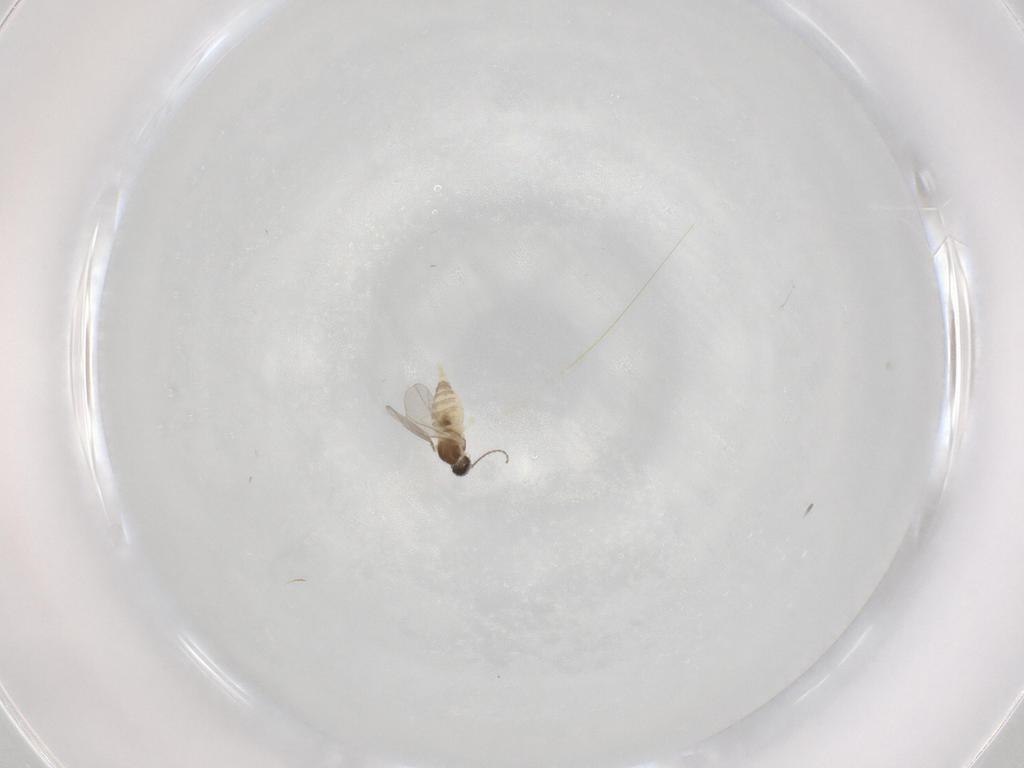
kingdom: Animalia
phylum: Arthropoda
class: Insecta
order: Diptera
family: Cecidomyiidae
